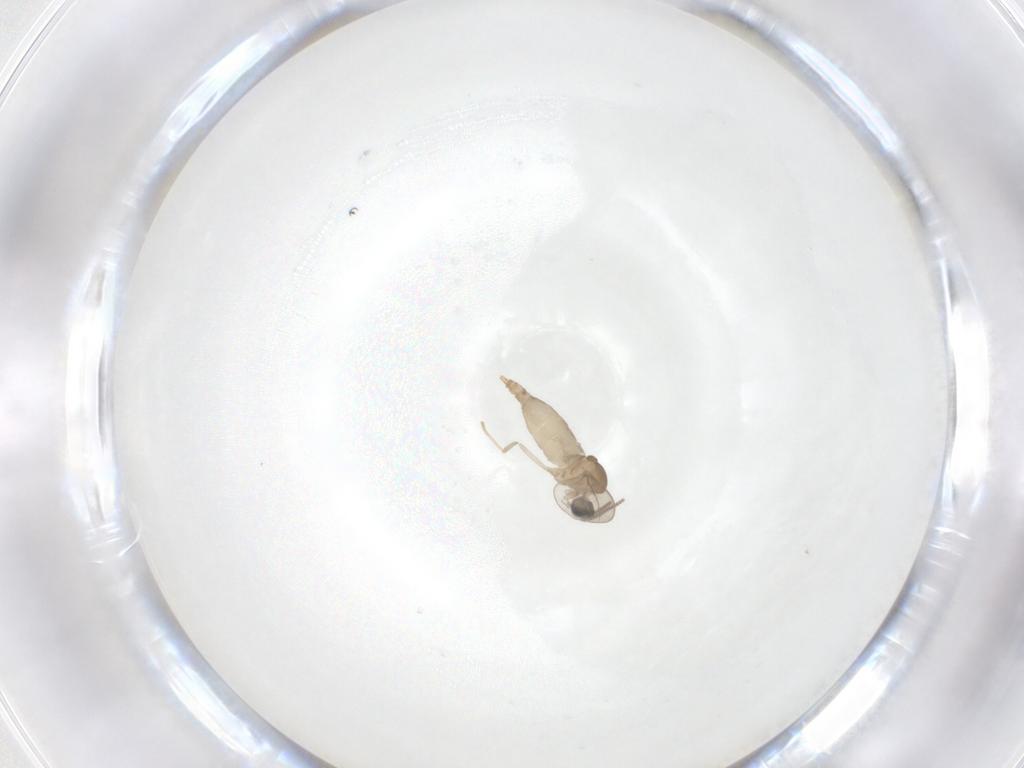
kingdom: Animalia
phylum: Arthropoda
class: Insecta
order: Diptera
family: Cecidomyiidae
